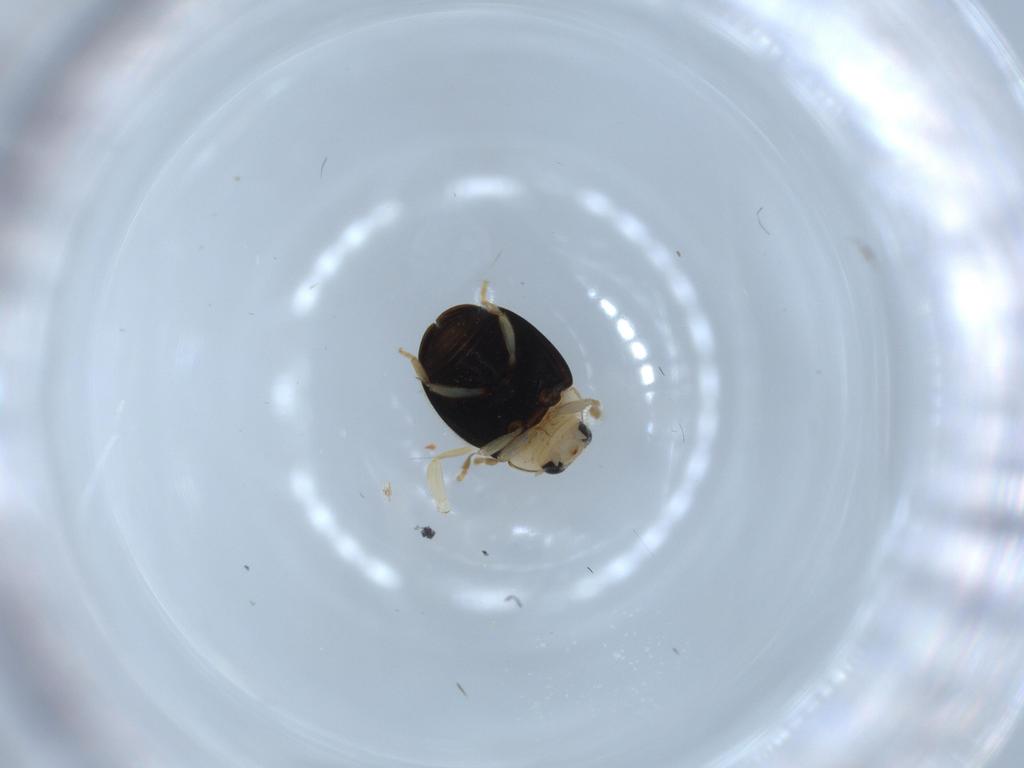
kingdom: Animalia
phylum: Arthropoda
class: Insecta
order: Coleoptera
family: Coccinellidae
